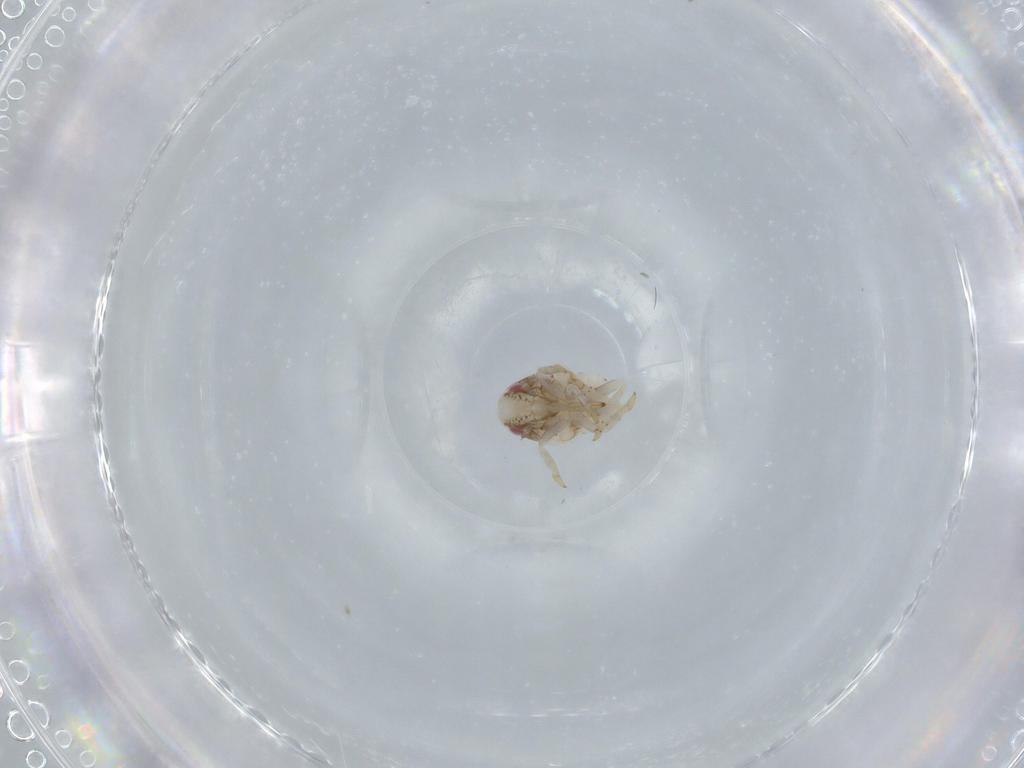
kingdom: Animalia
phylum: Arthropoda
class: Insecta
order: Hemiptera
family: Acanaloniidae
